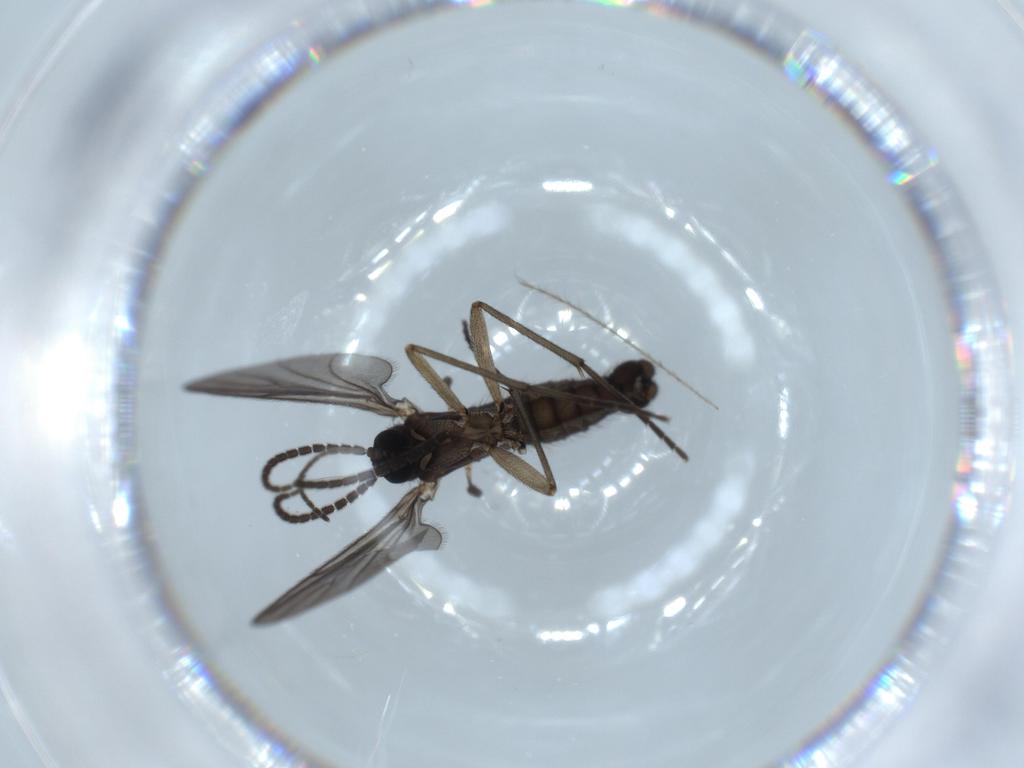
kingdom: Animalia
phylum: Arthropoda
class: Insecta
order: Diptera
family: Sciaridae
